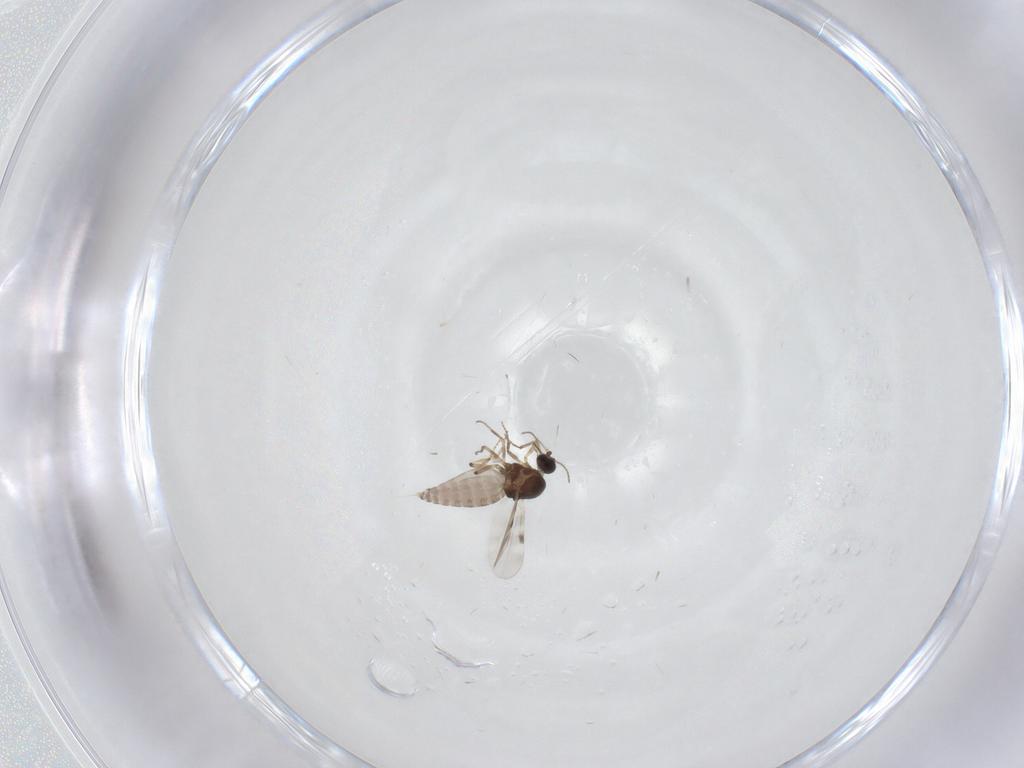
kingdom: Animalia
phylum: Arthropoda
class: Insecta
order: Diptera
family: Chironomidae
